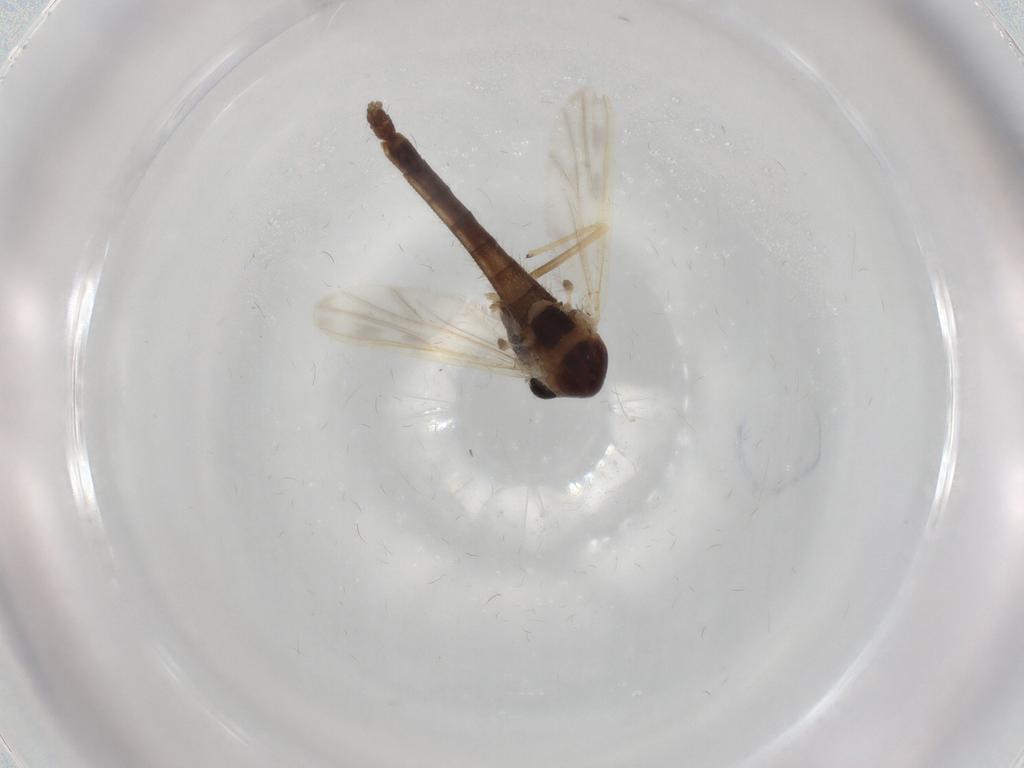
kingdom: Animalia
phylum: Arthropoda
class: Insecta
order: Diptera
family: Chironomidae
